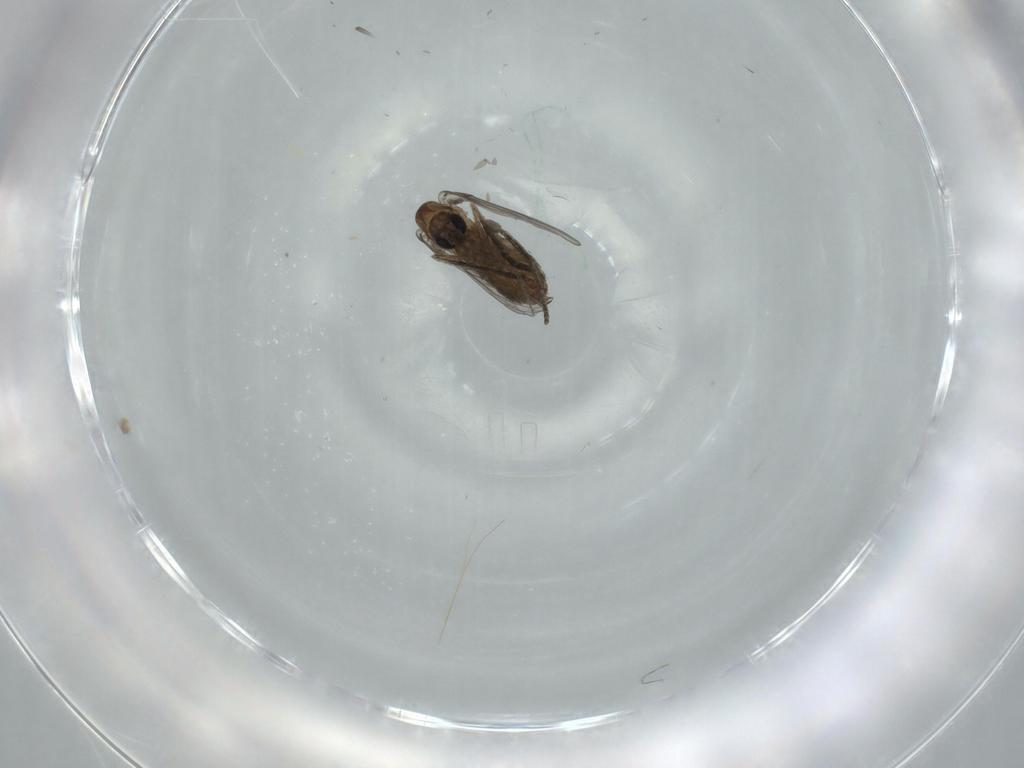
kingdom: Animalia
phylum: Arthropoda
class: Insecta
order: Diptera
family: Psychodidae
